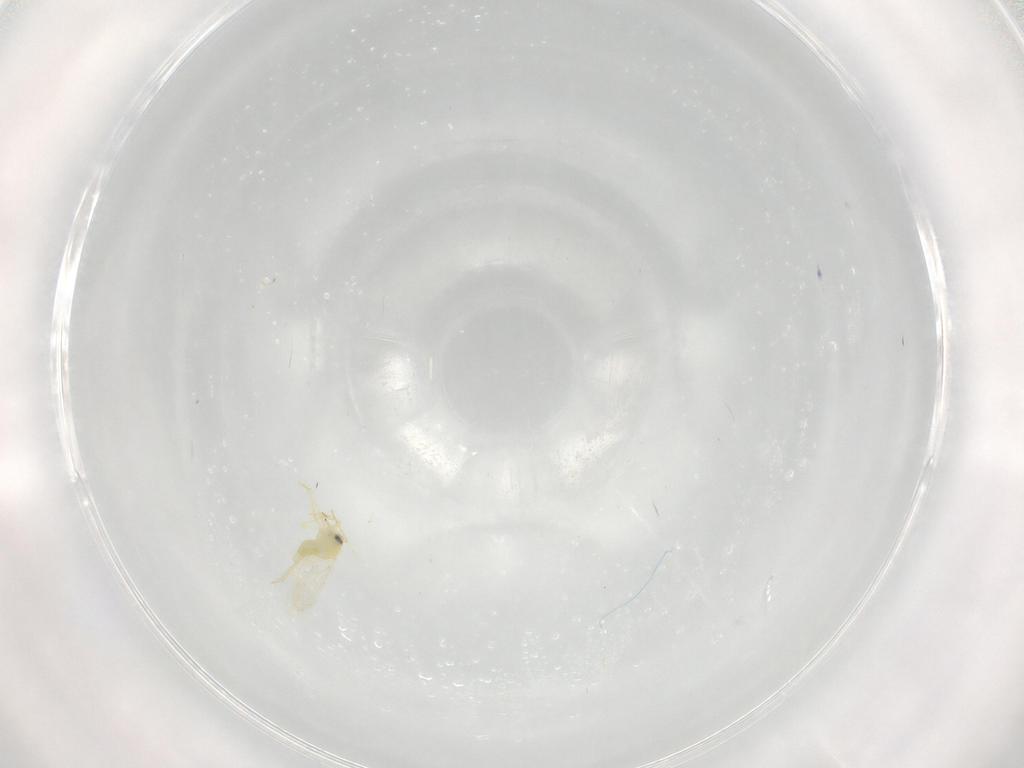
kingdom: Animalia
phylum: Arthropoda
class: Insecta
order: Hemiptera
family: Aleyrodidae
